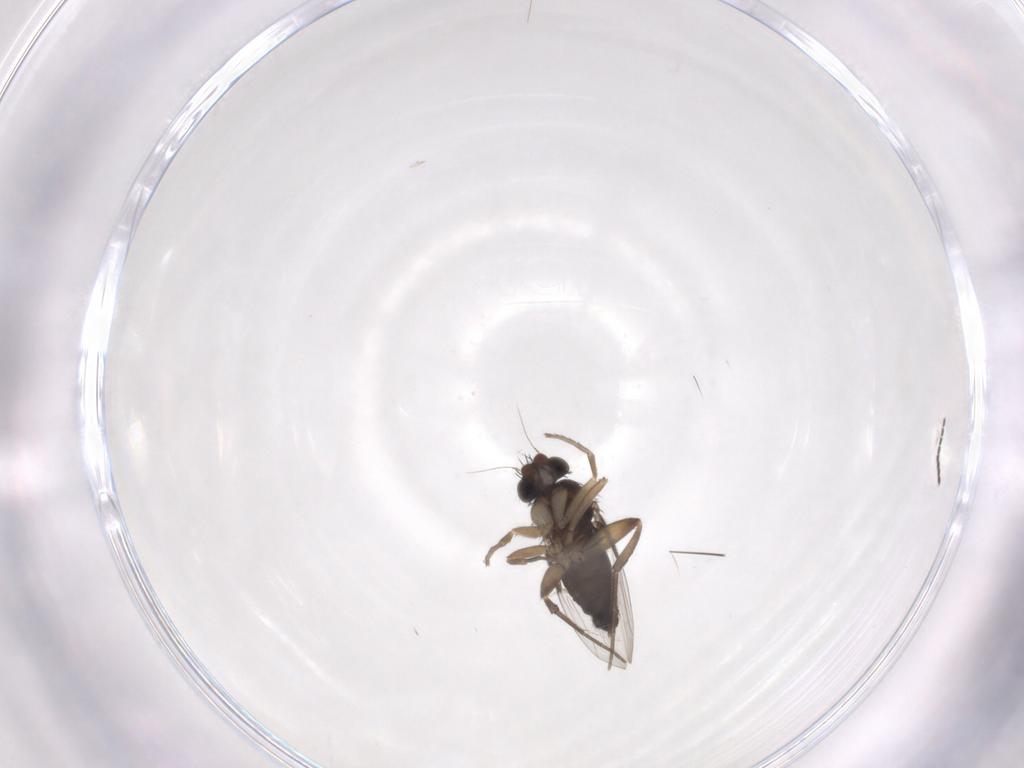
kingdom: Animalia
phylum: Arthropoda
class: Insecta
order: Diptera
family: Sciaridae
